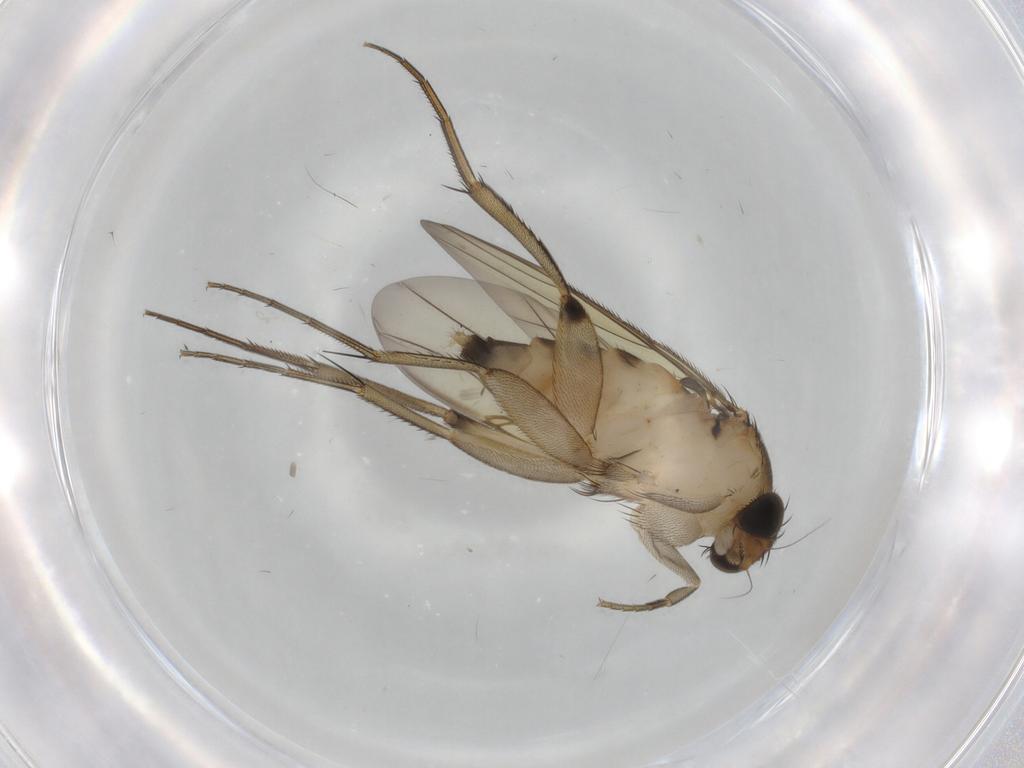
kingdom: Animalia
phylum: Arthropoda
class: Insecta
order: Diptera
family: Phoridae
